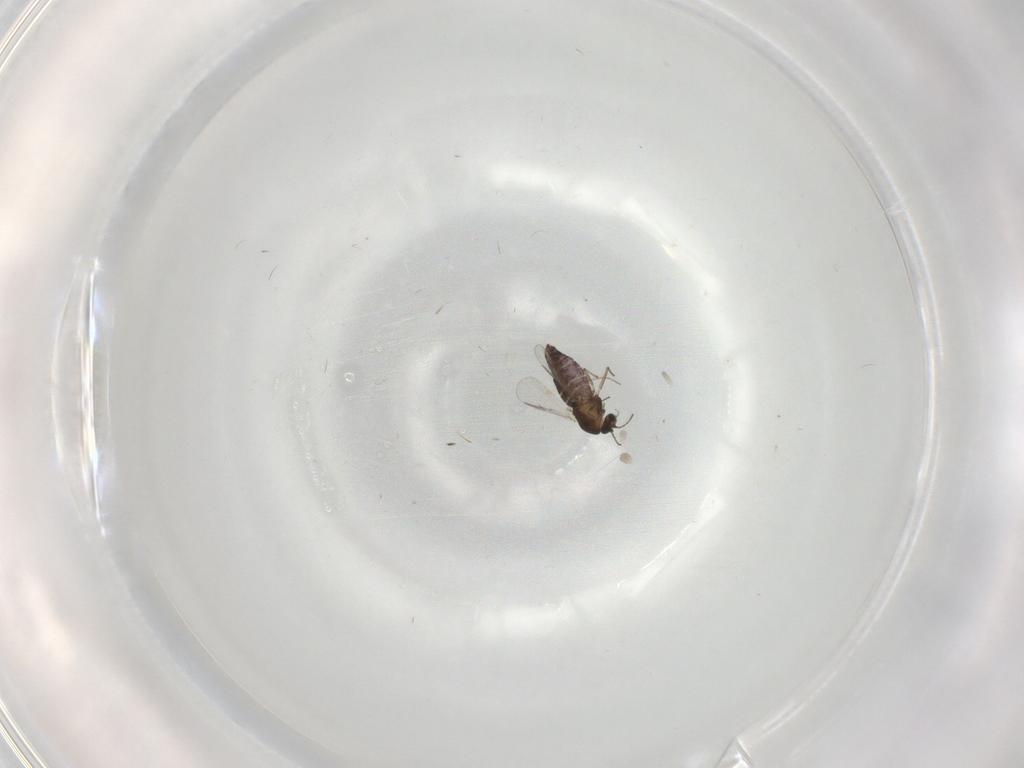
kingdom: Animalia
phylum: Arthropoda
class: Insecta
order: Diptera
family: Chironomidae
